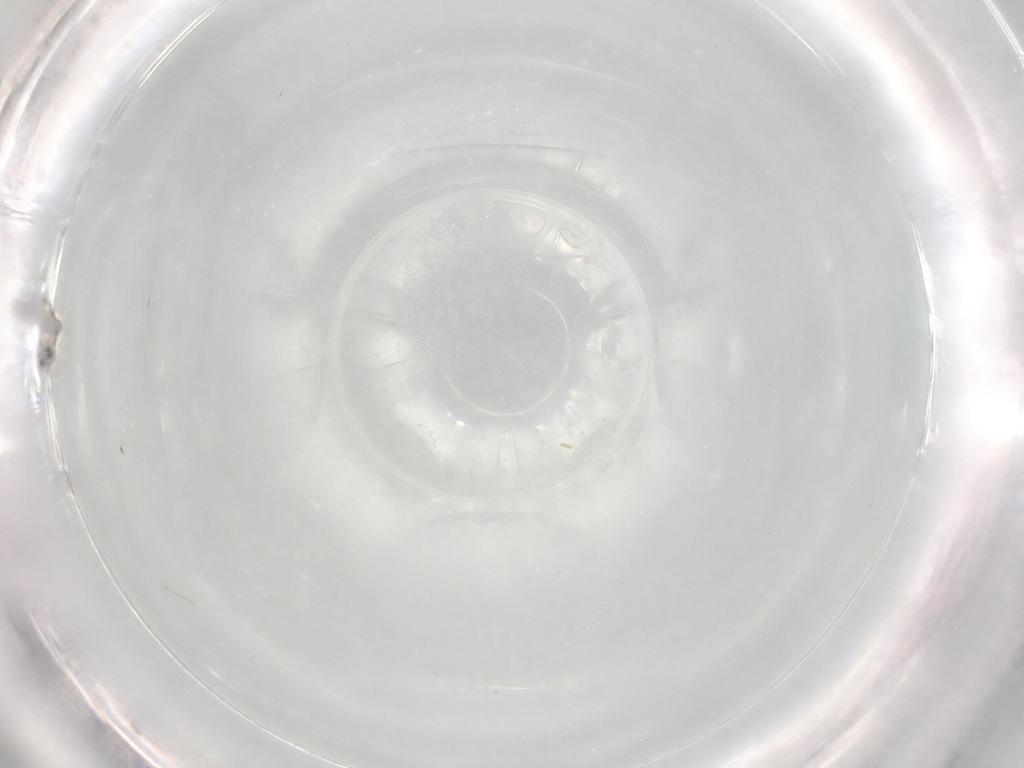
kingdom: Animalia
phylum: Arthropoda
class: Insecta
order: Diptera
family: Cecidomyiidae
